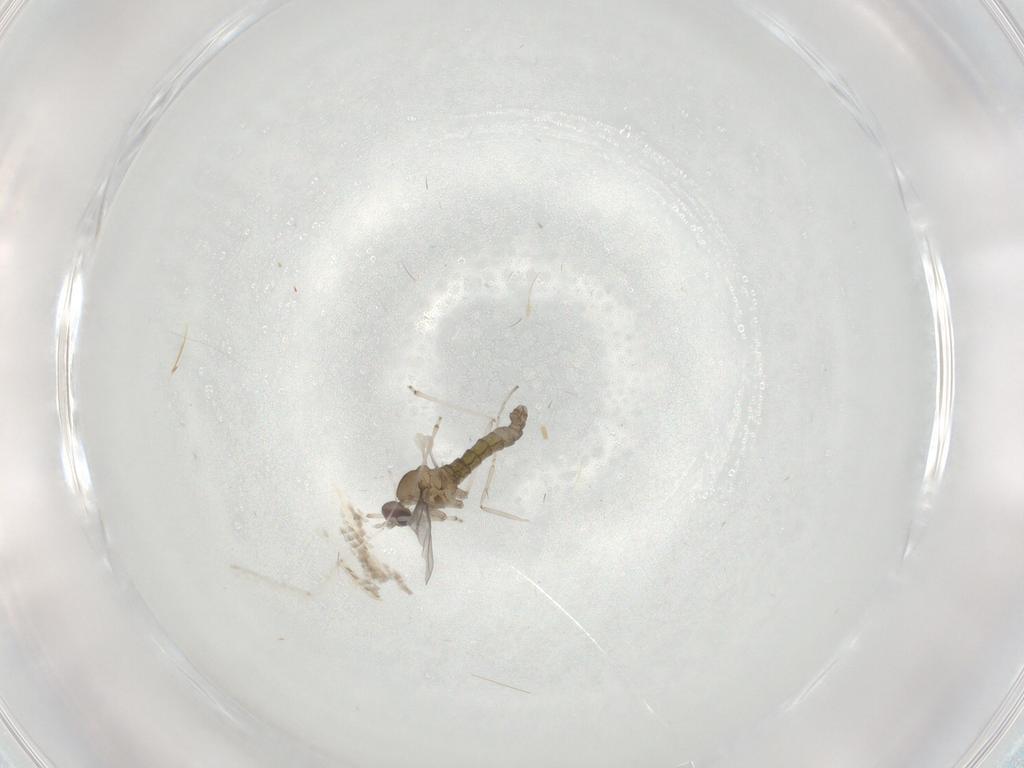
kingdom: Animalia
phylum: Arthropoda
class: Insecta
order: Diptera
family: Cecidomyiidae
